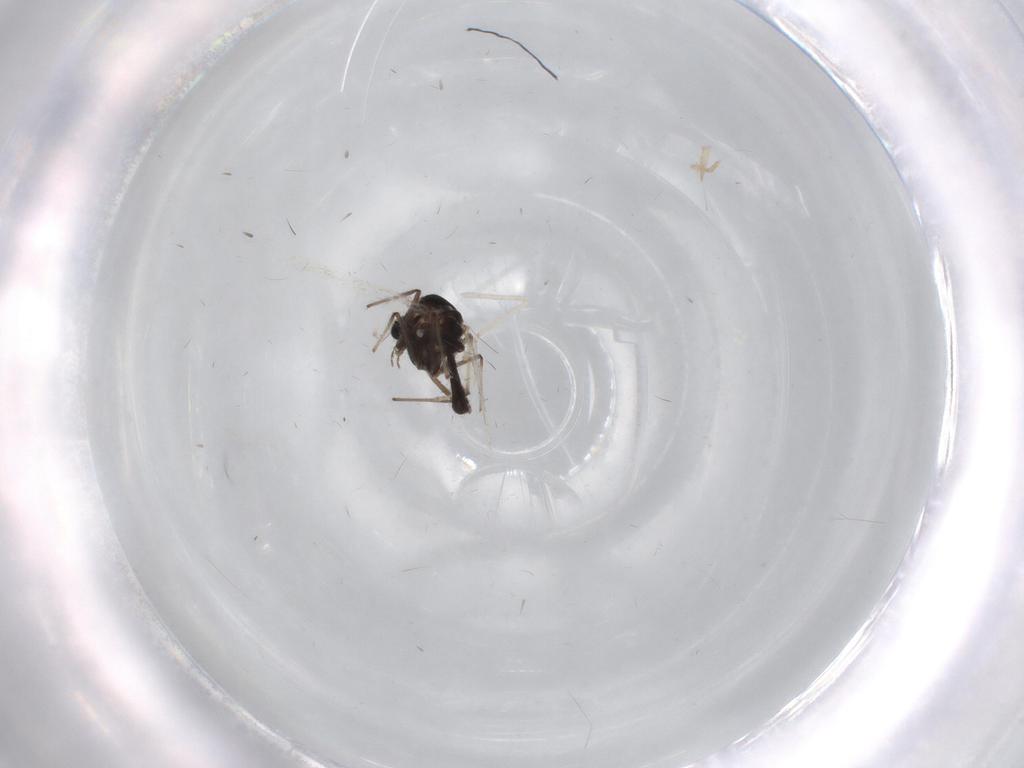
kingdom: Animalia
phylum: Arthropoda
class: Insecta
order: Diptera
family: Chironomidae
